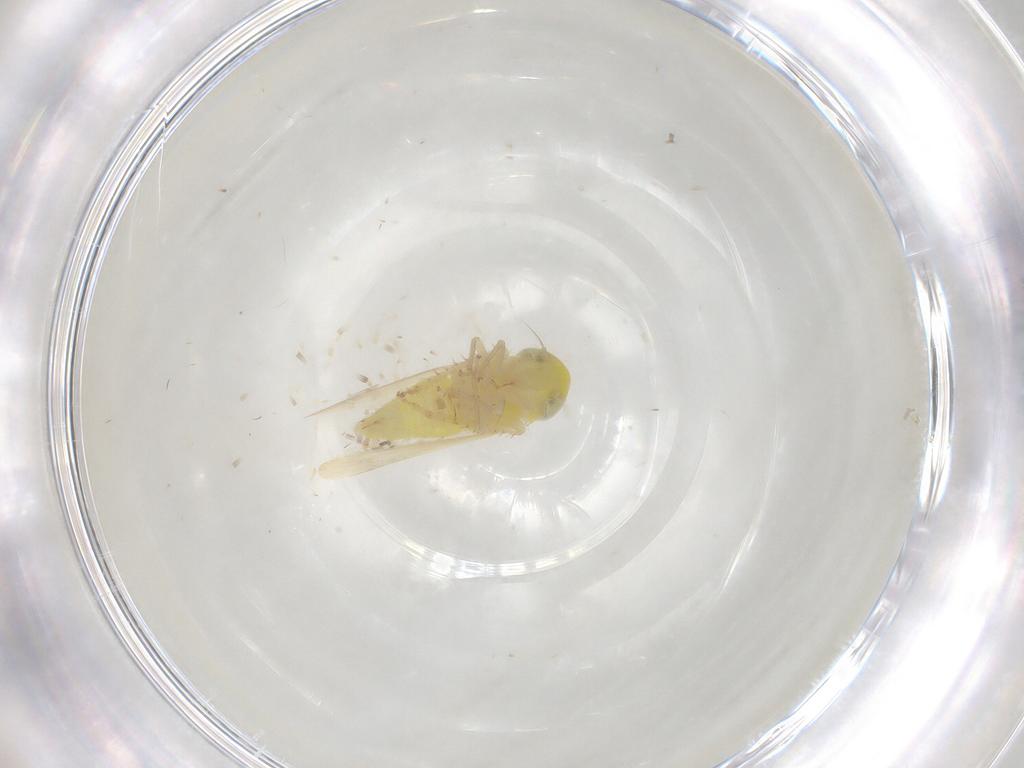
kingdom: Animalia
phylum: Arthropoda
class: Insecta
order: Hemiptera
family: Cicadellidae
